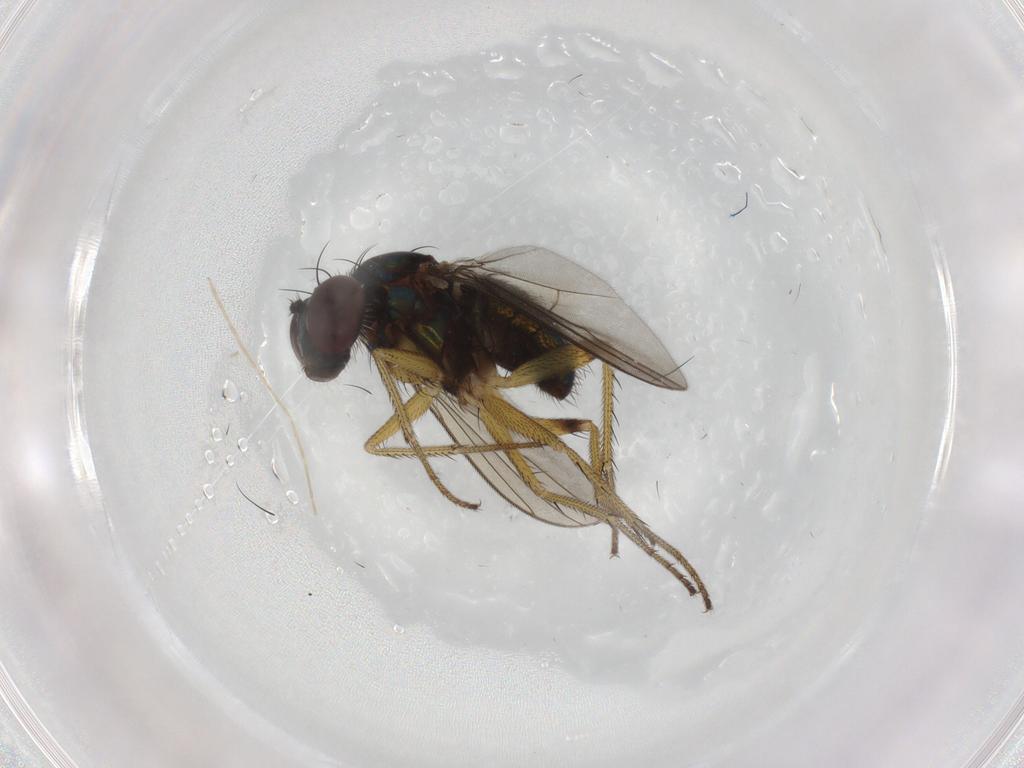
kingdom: Animalia
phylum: Arthropoda
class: Insecta
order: Diptera
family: Dolichopodidae
